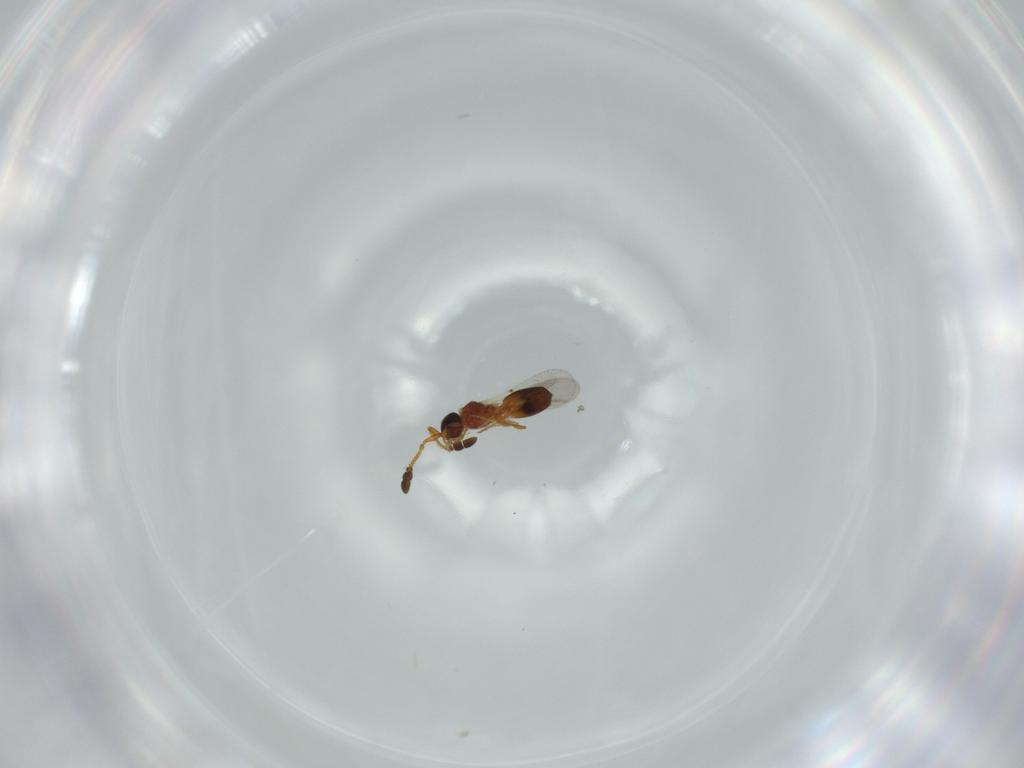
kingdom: Animalia
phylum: Arthropoda
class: Insecta
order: Hymenoptera
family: Diapriidae
